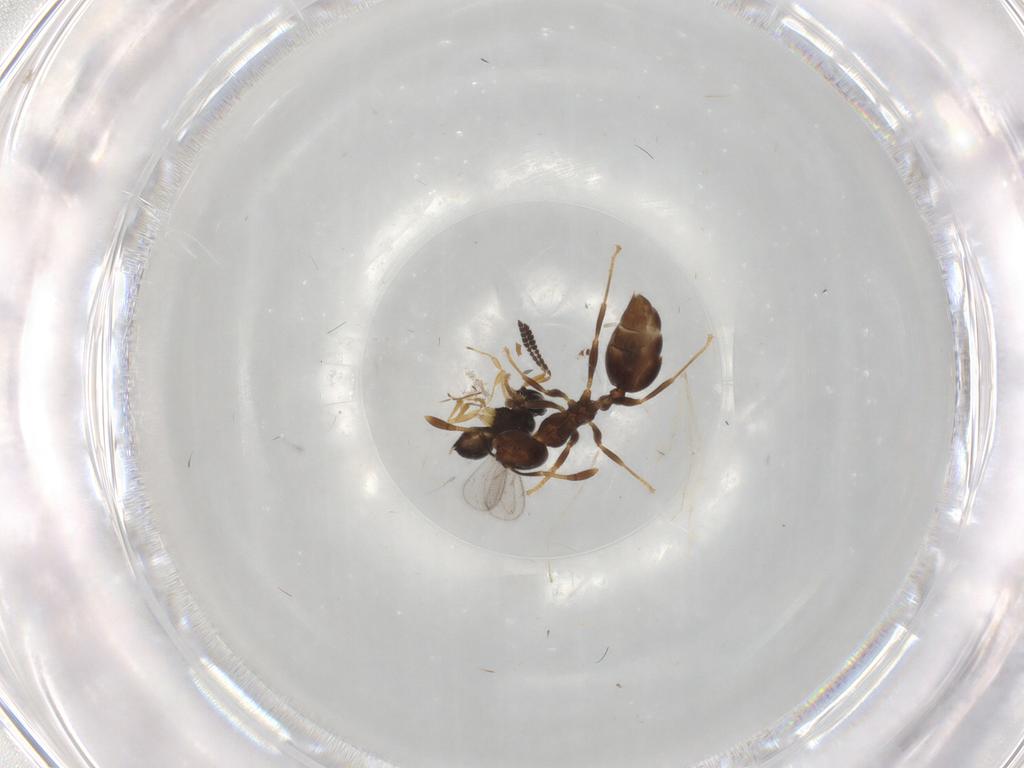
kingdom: Animalia
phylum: Arthropoda
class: Insecta
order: Hymenoptera
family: Scelionidae
